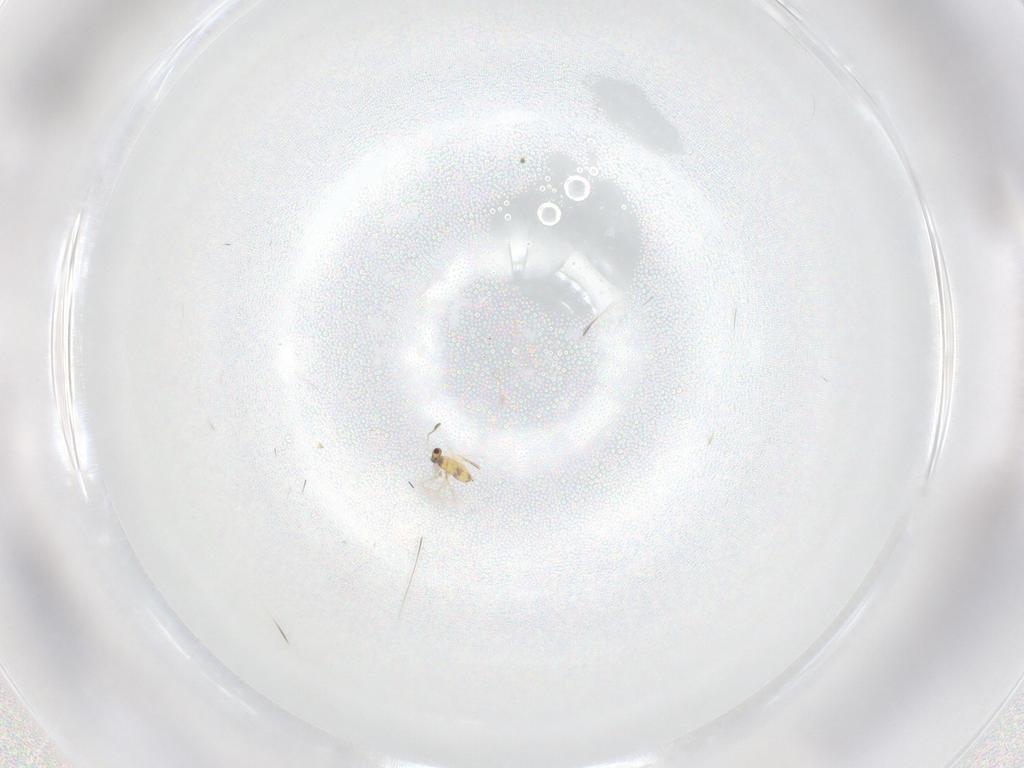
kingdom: Animalia
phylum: Arthropoda
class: Insecta
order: Hymenoptera
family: Mymaridae
